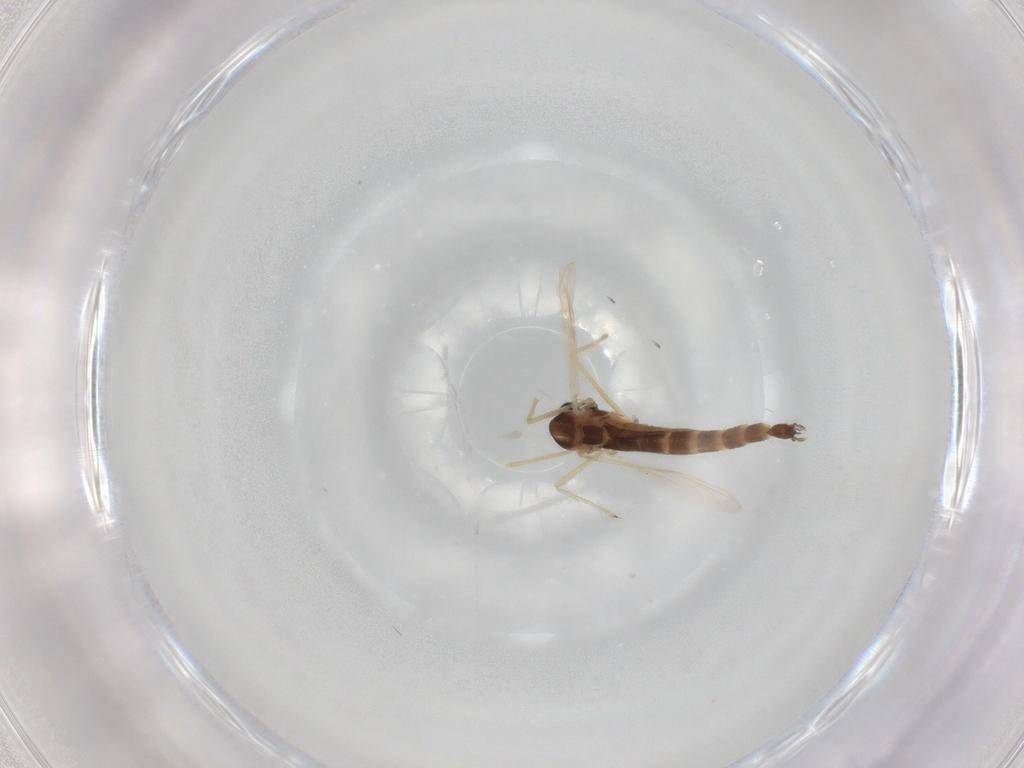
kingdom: Animalia
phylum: Arthropoda
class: Insecta
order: Diptera
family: Chironomidae
